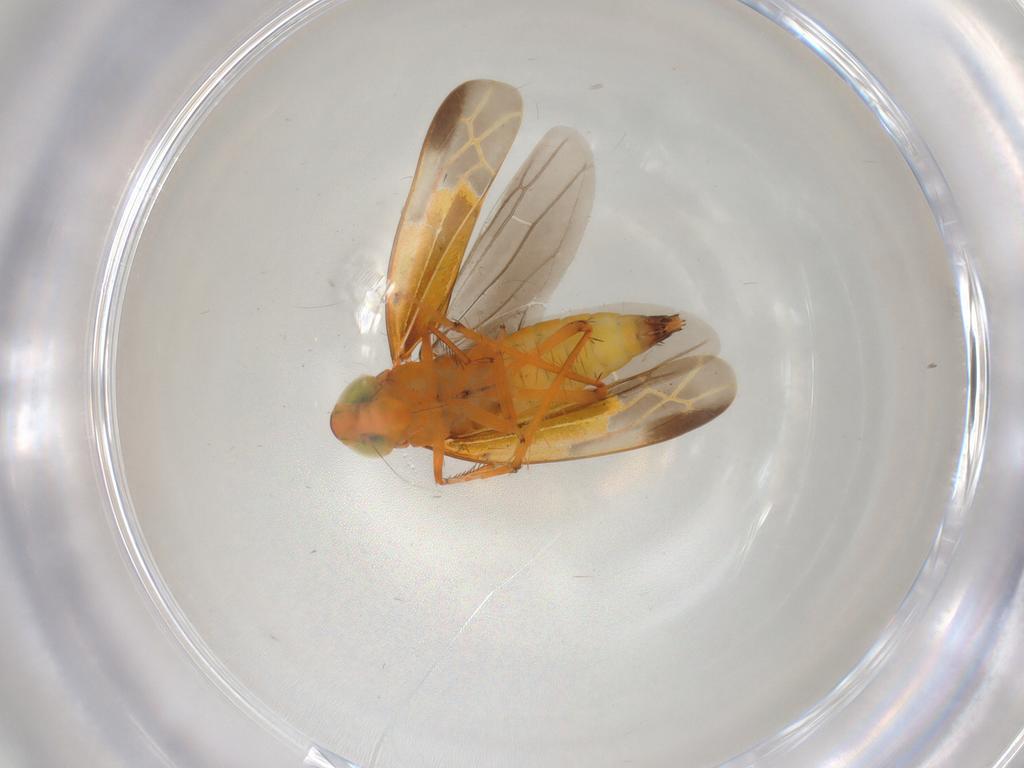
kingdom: Animalia
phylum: Arthropoda
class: Insecta
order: Hemiptera
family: Cicadellidae
